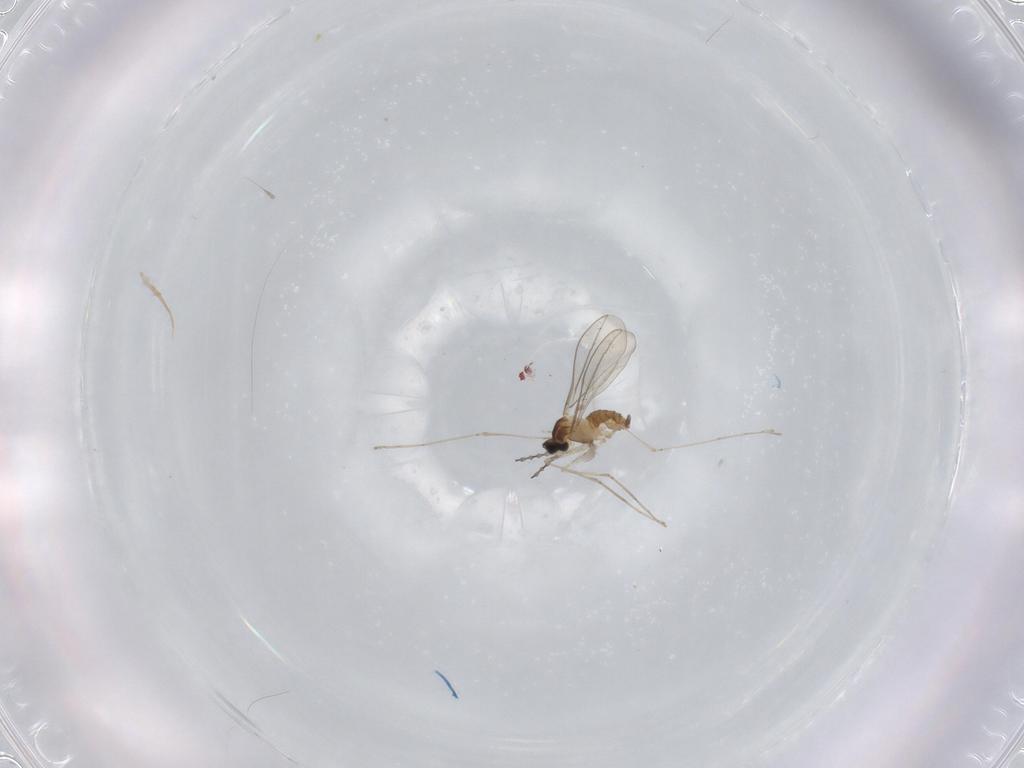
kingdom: Animalia
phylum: Arthropoda
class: Insecta
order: Diptera
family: Cecidomyiidae
